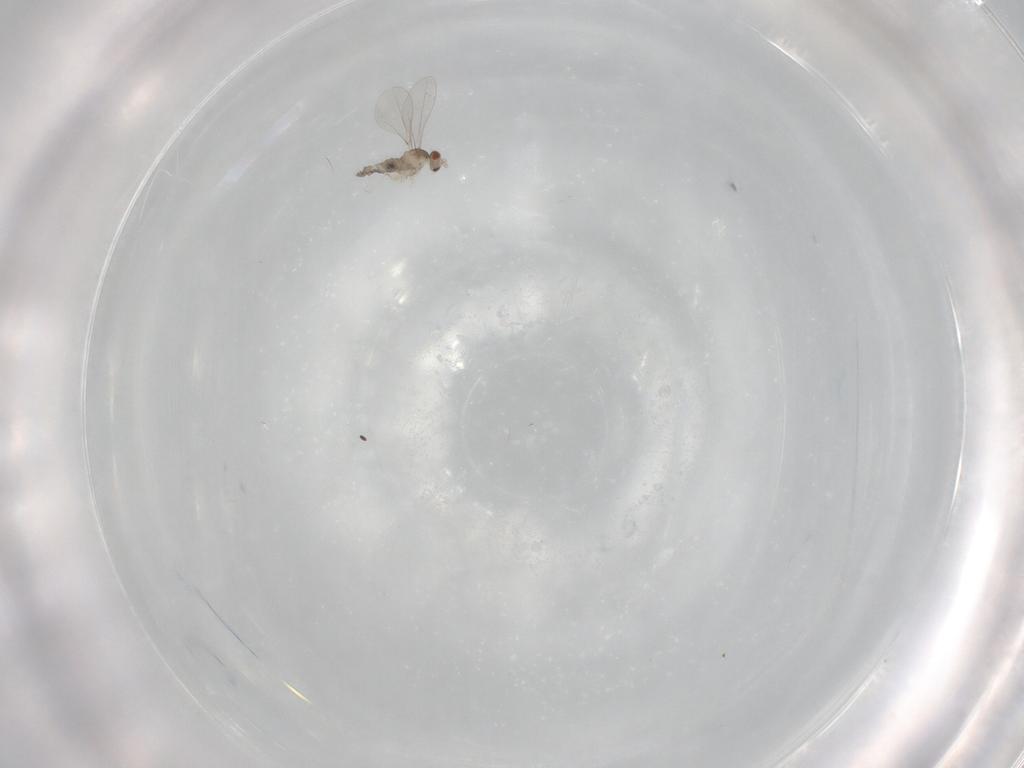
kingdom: Animalia
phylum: Arthropoda
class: Insecta
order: Diptera
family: Cecidomyiidae
